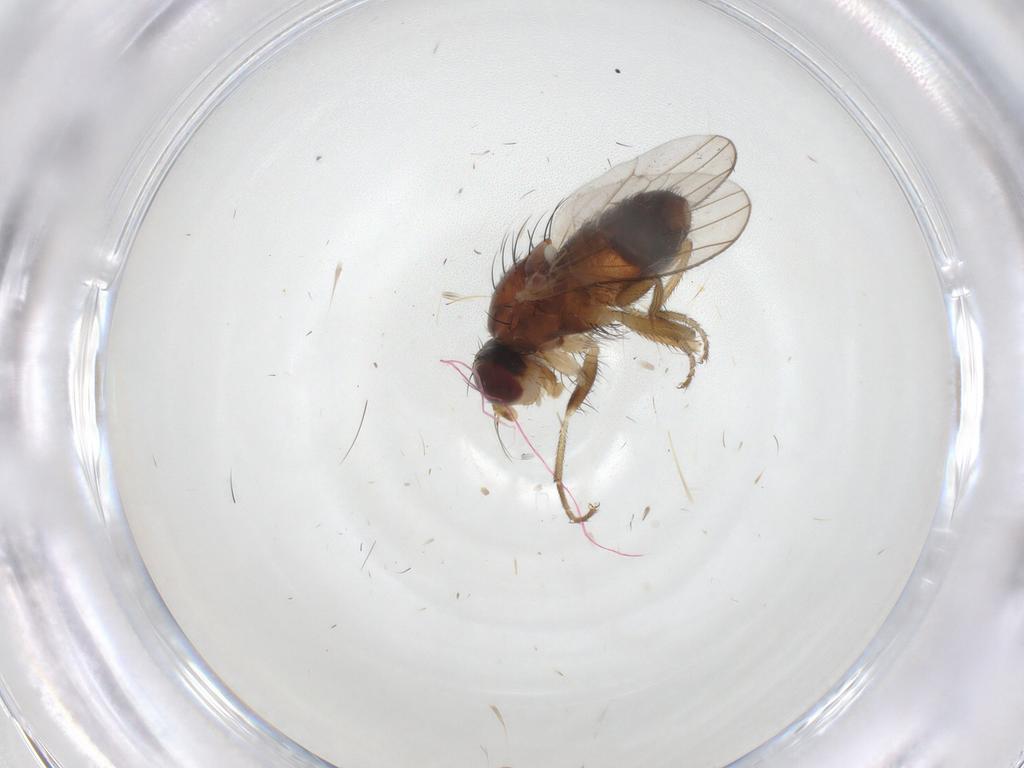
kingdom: Animalia
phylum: Arthropoda
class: Insecta
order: Diptera
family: Heleomyzidae
